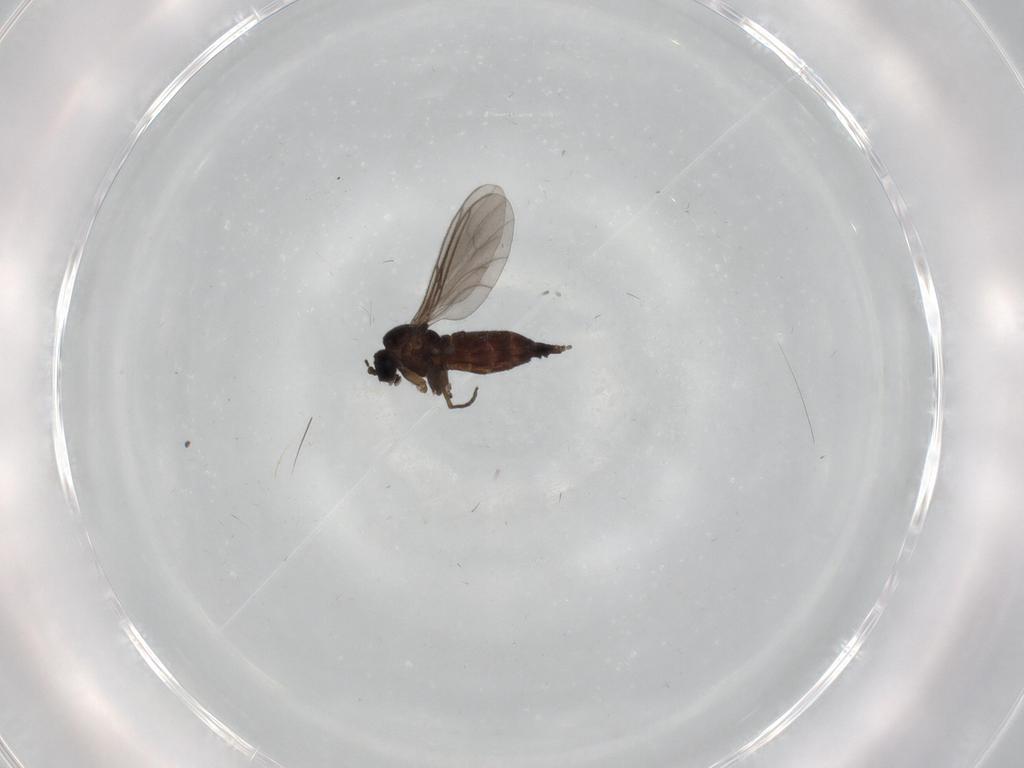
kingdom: Animalia
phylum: Arthropoda
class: Insecta
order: Diptera
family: Sciaridae
